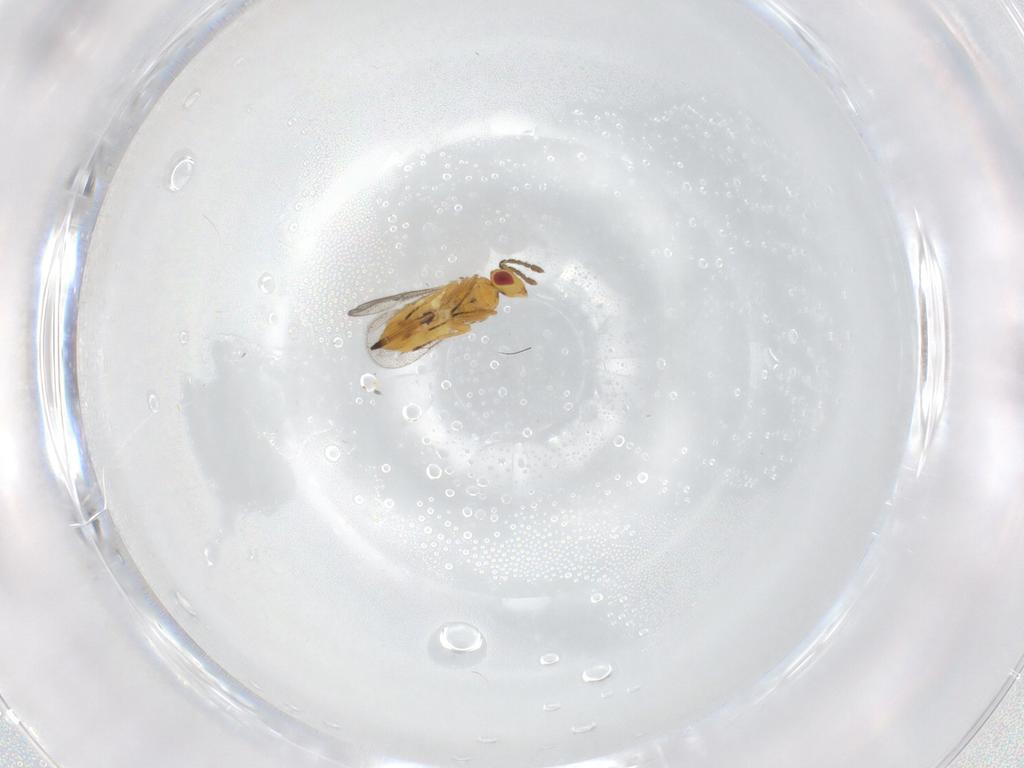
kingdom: Animalia
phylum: Arthropoda
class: Insecta
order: Hymenoptera
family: Eulophidae
